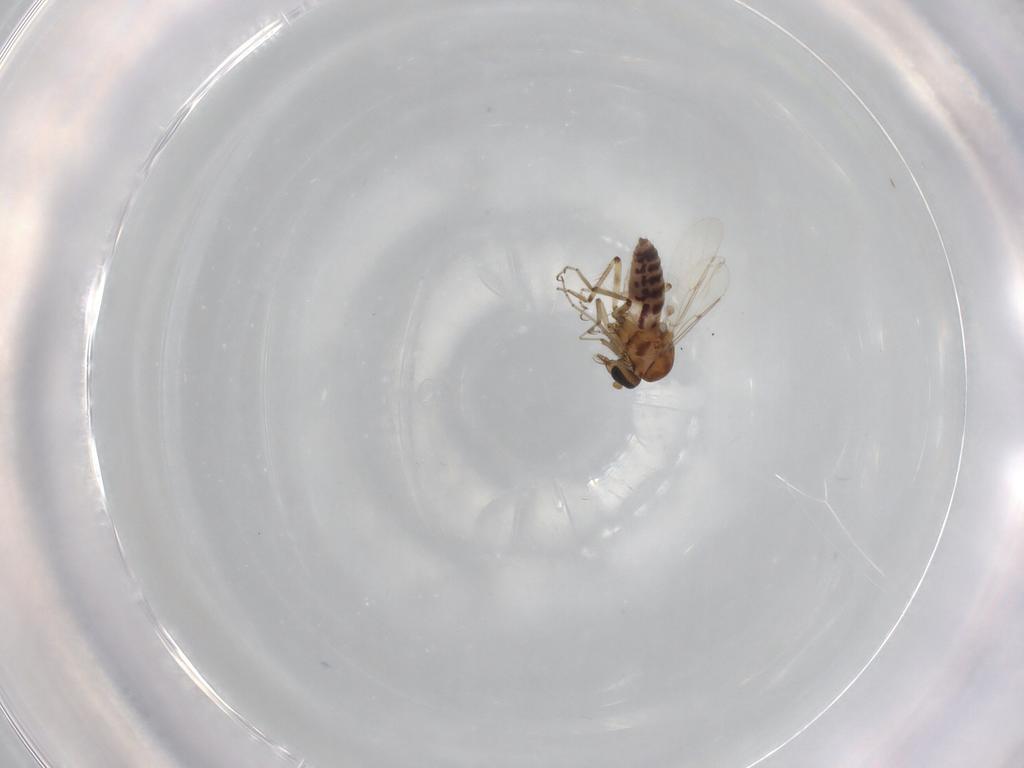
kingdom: Animalia
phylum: Arthropoda
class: Insecta
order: Diptera
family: Ceratopogonidae
